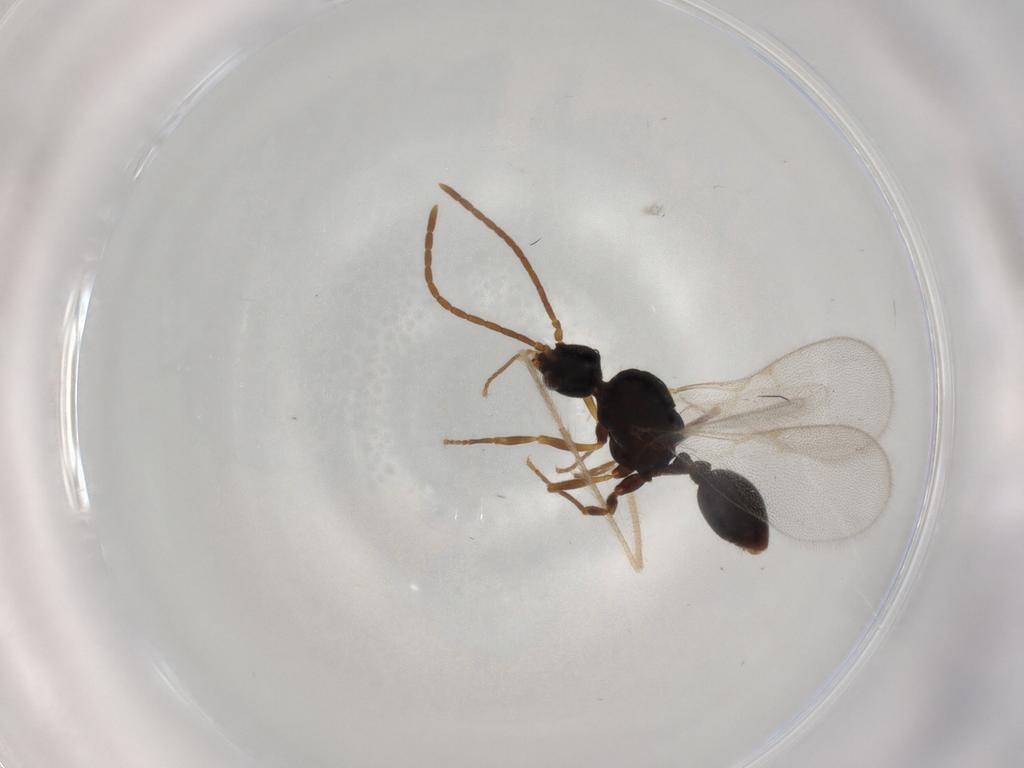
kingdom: Animalia
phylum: Arthropoda
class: Insecta
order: Hymenoptera
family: Formicidae
